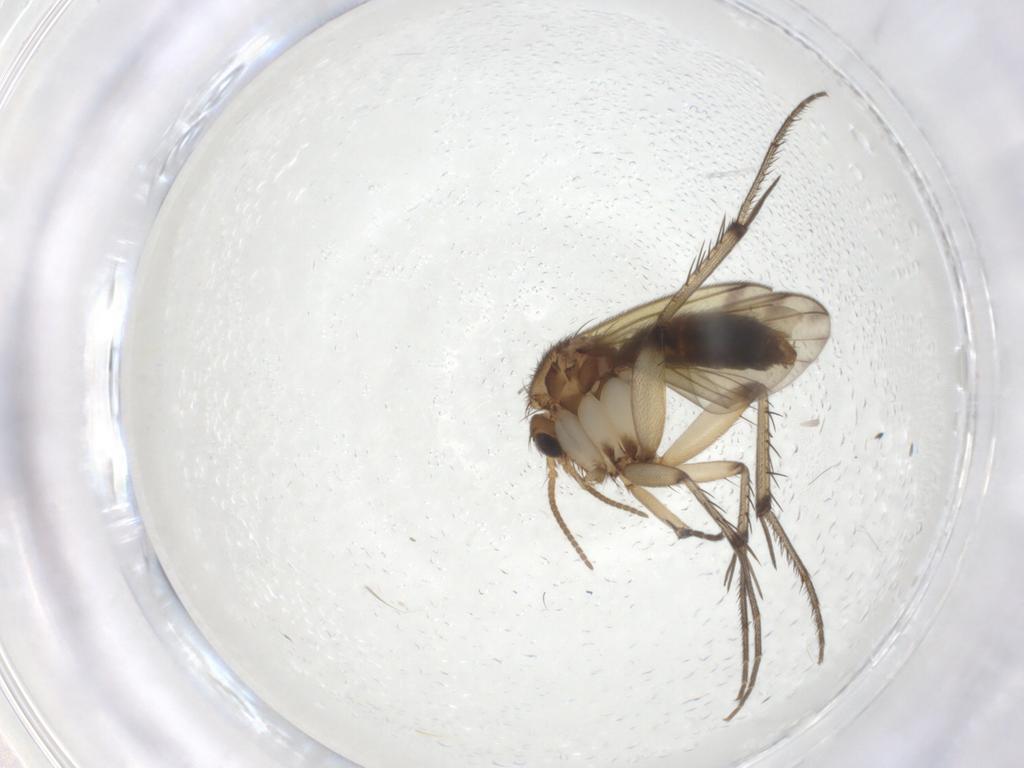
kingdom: Animalia
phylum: Arthropoda
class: Insecta
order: Diptera
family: Mycetophilidae
